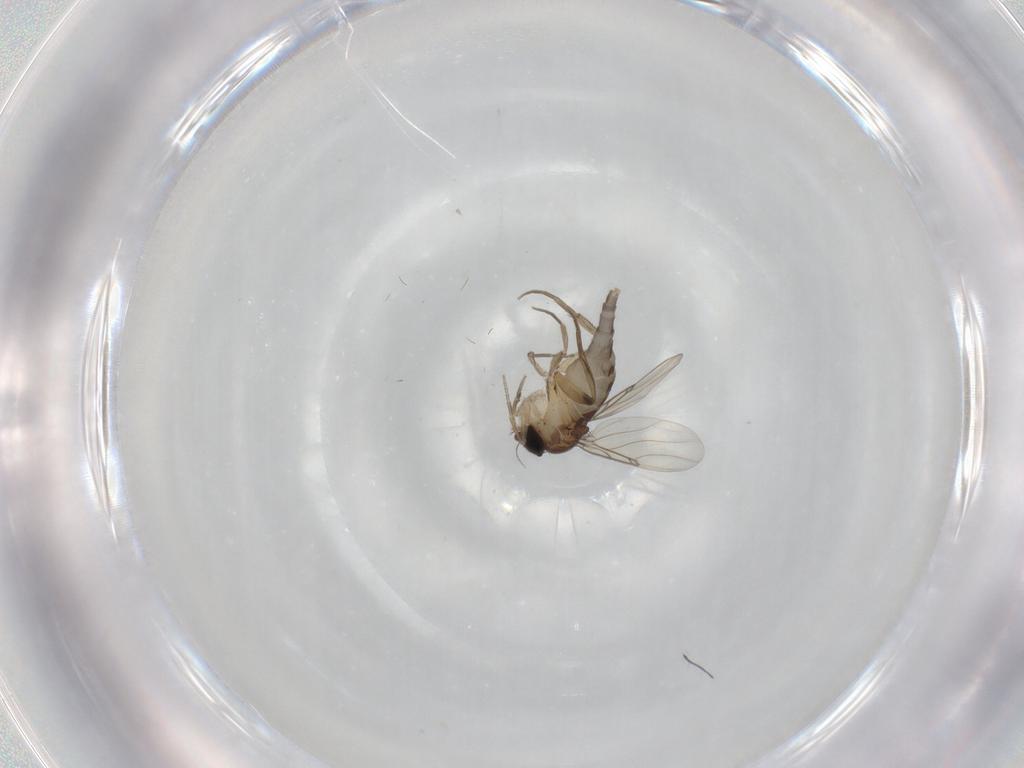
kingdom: Animalia
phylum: Arthropoda
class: Insecta
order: Diptera
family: Phoridae
